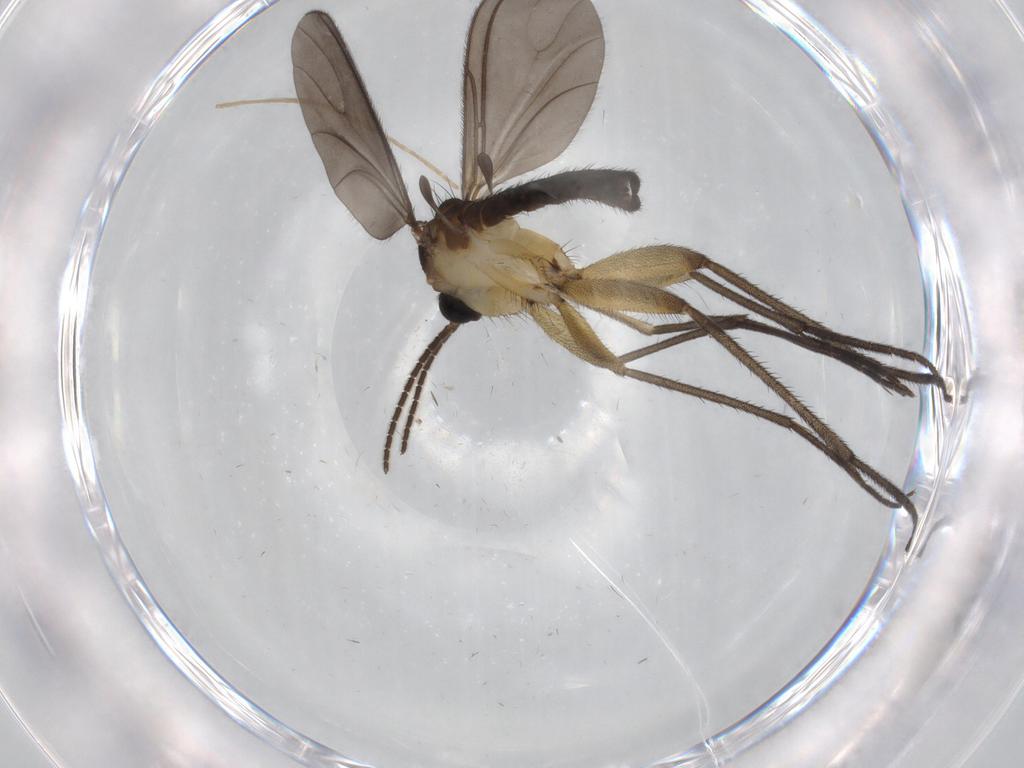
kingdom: Animalia
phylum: Arthropoda
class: Insecta
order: Diptera
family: Sciaridae
